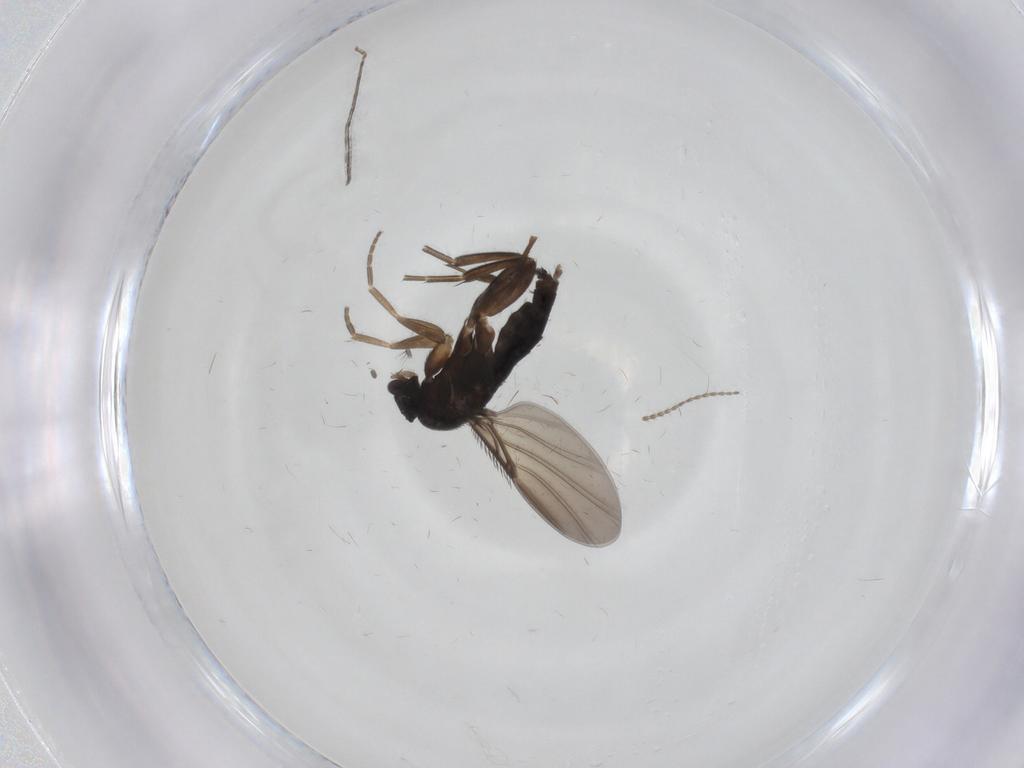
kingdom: Animalia
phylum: Arthropoda
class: Insecta
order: Diptera
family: Phoridae
